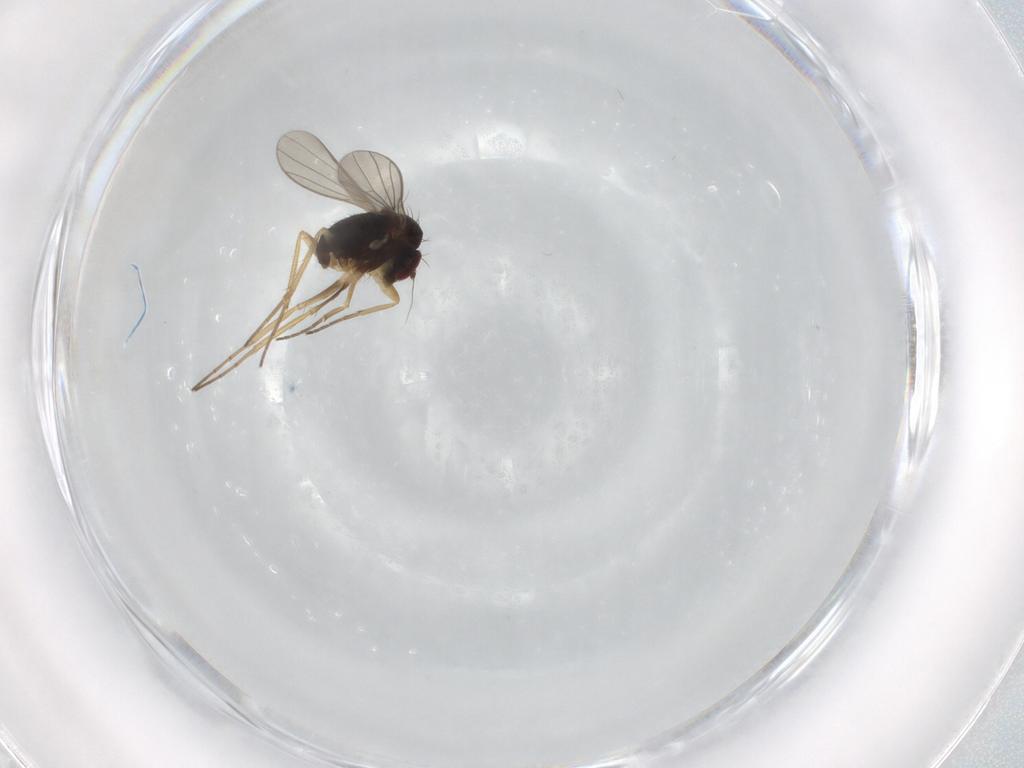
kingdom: Animalia
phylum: Arthropoda
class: Insecta
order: Diptera
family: Dolichopodidae
